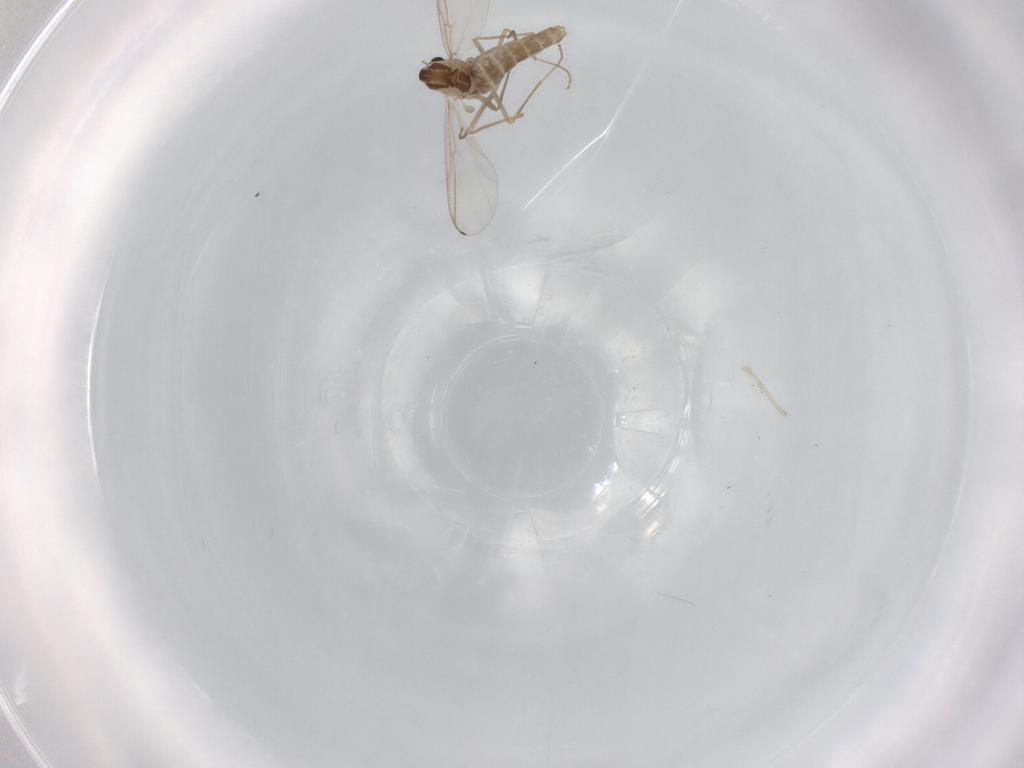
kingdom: Animalia
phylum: Arthropoda
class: Insecta
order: Diptera
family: Chironomidae
